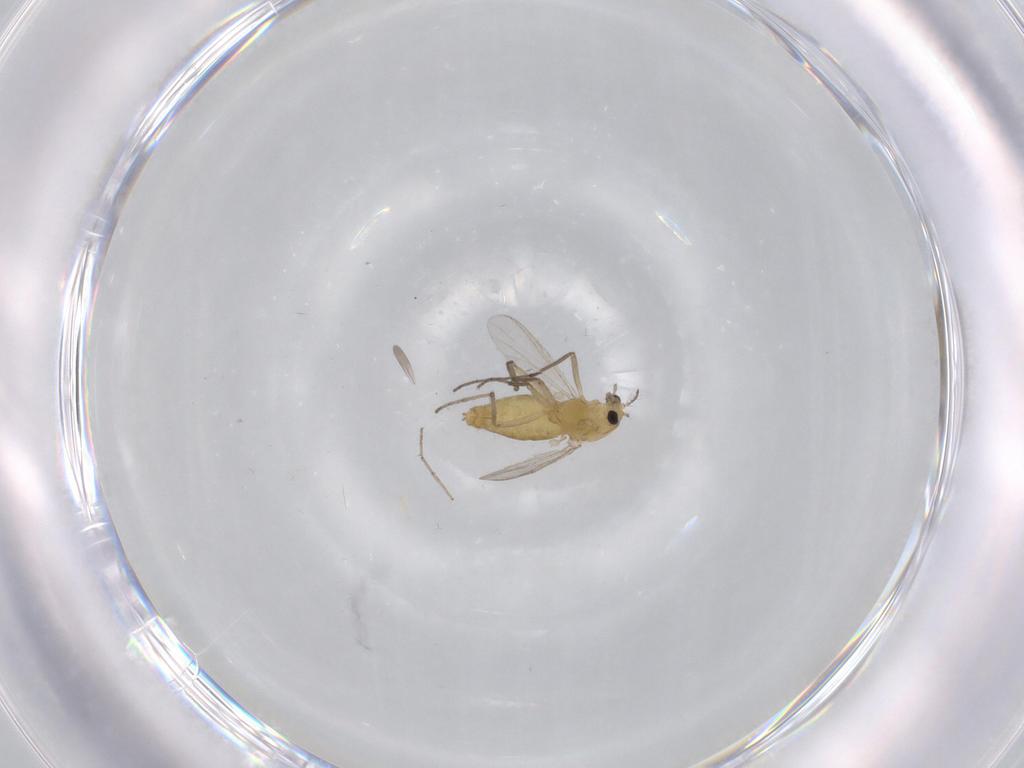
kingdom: Animalia
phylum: Arthropoda
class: Insecta
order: Diptera
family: Chironomidae
